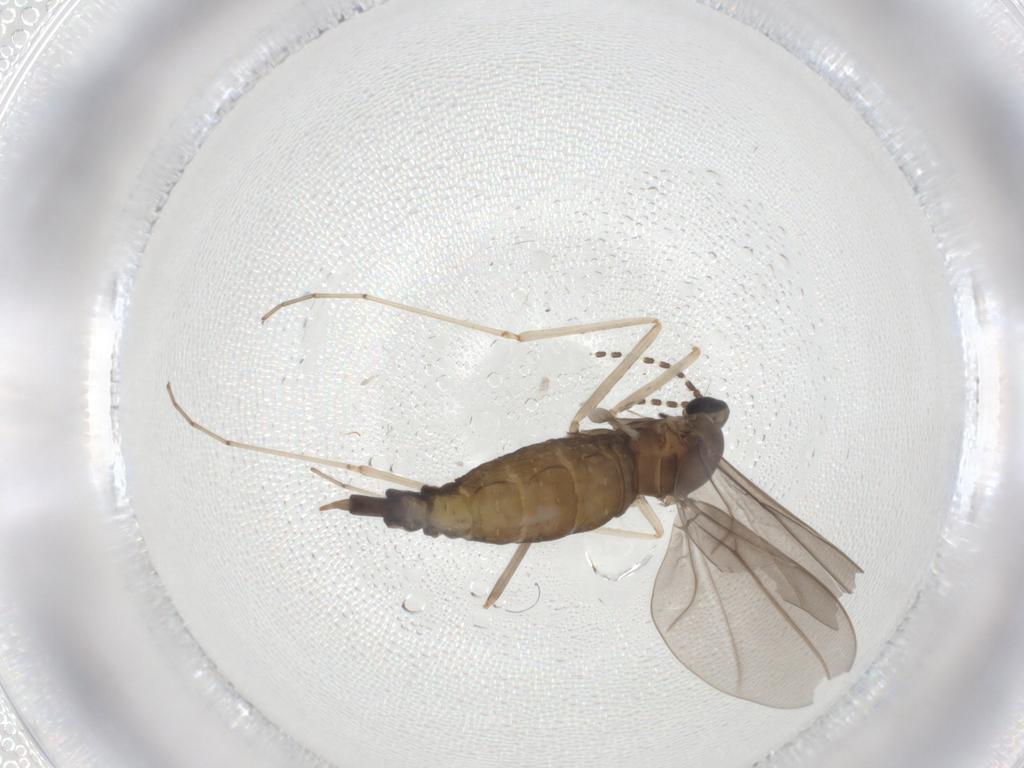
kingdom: Animalia
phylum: Arthropoda
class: Insecta
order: Diptera
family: Cecidomyiidae
